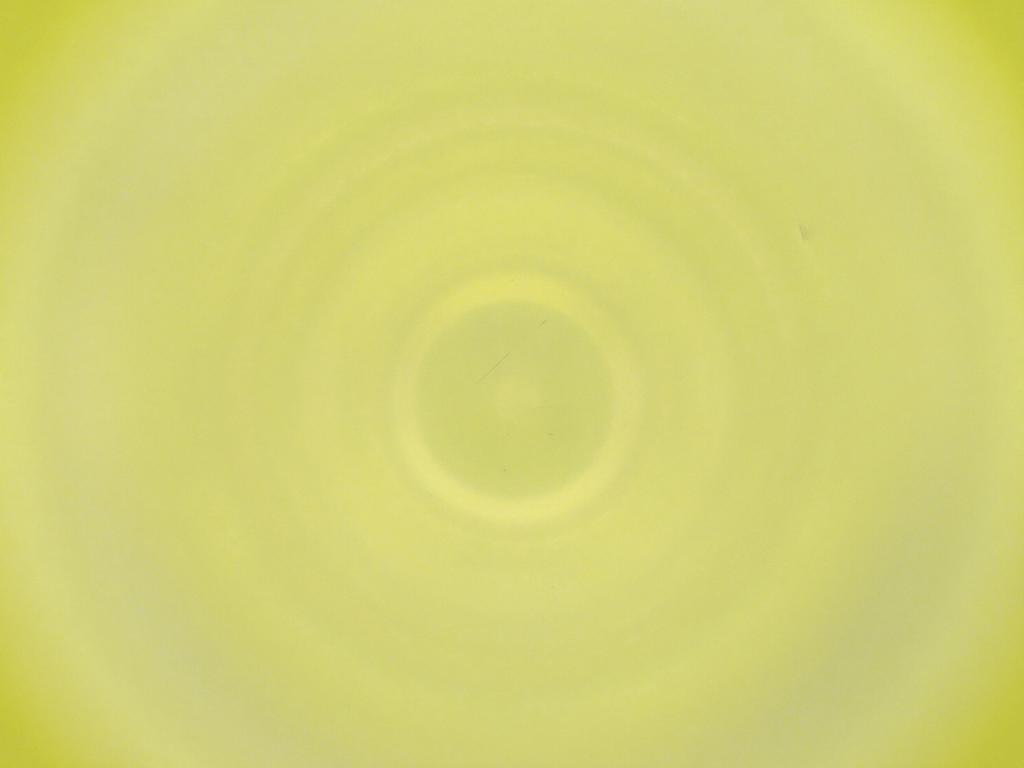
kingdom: Animalia
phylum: Arthropoda
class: Insecta
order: Diptera
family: Cecidomyiidae
